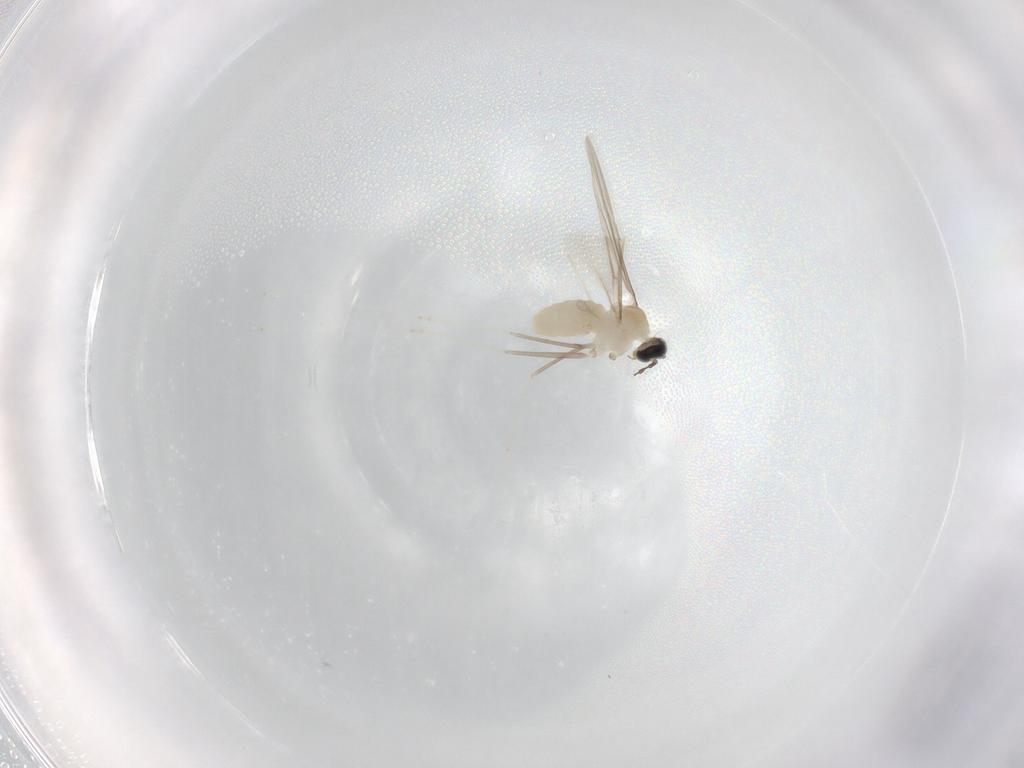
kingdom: Animalia
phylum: Arthropoda
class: Insecta
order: Diptera
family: Cecidomyiidae
